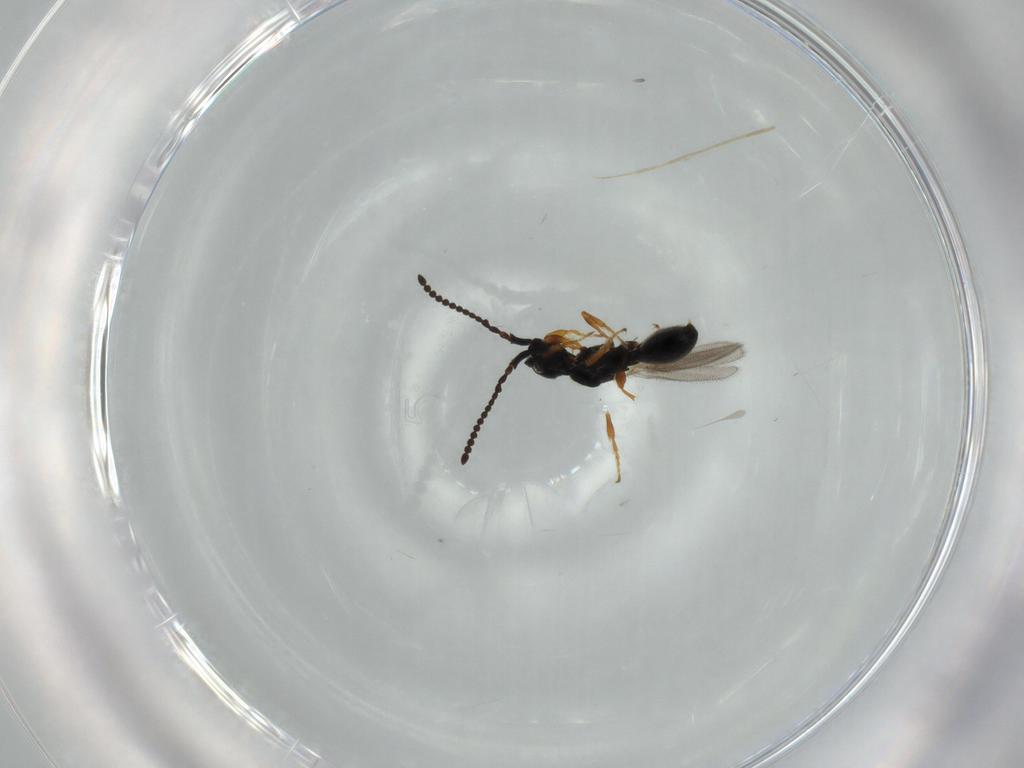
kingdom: Animalia
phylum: Arthropoda
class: Insecta
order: Hymenoptera
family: Diapriidae
